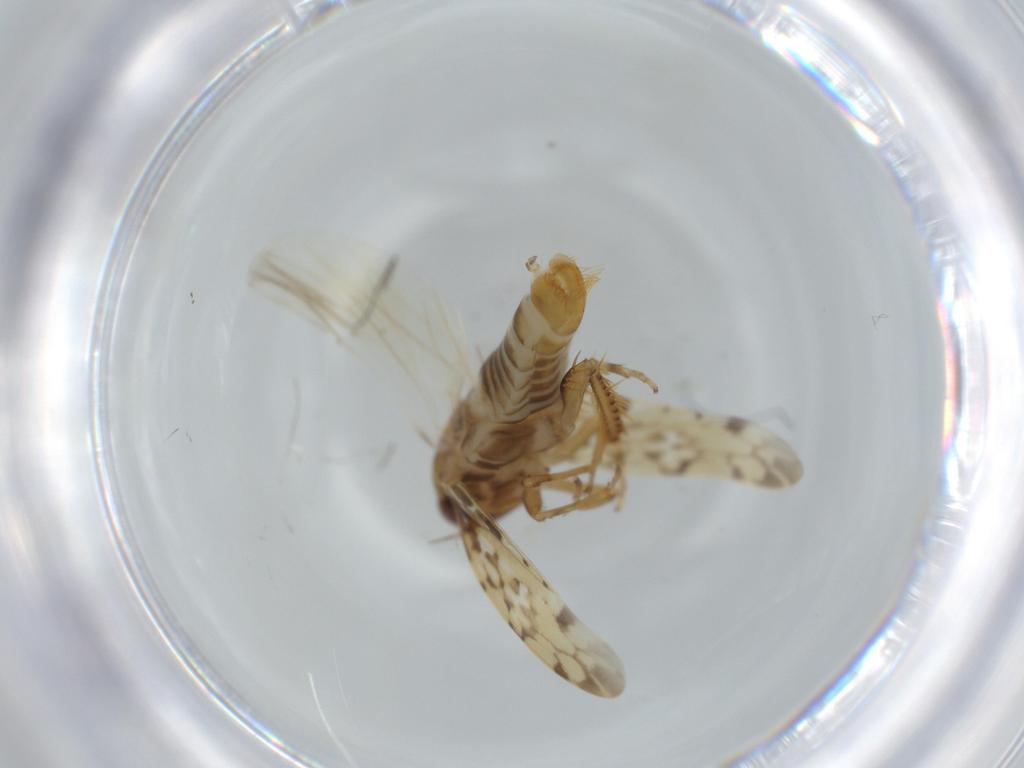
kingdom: Animalia
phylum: Arthropoda
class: Insecta
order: Hemiptera
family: Cicadellidae
